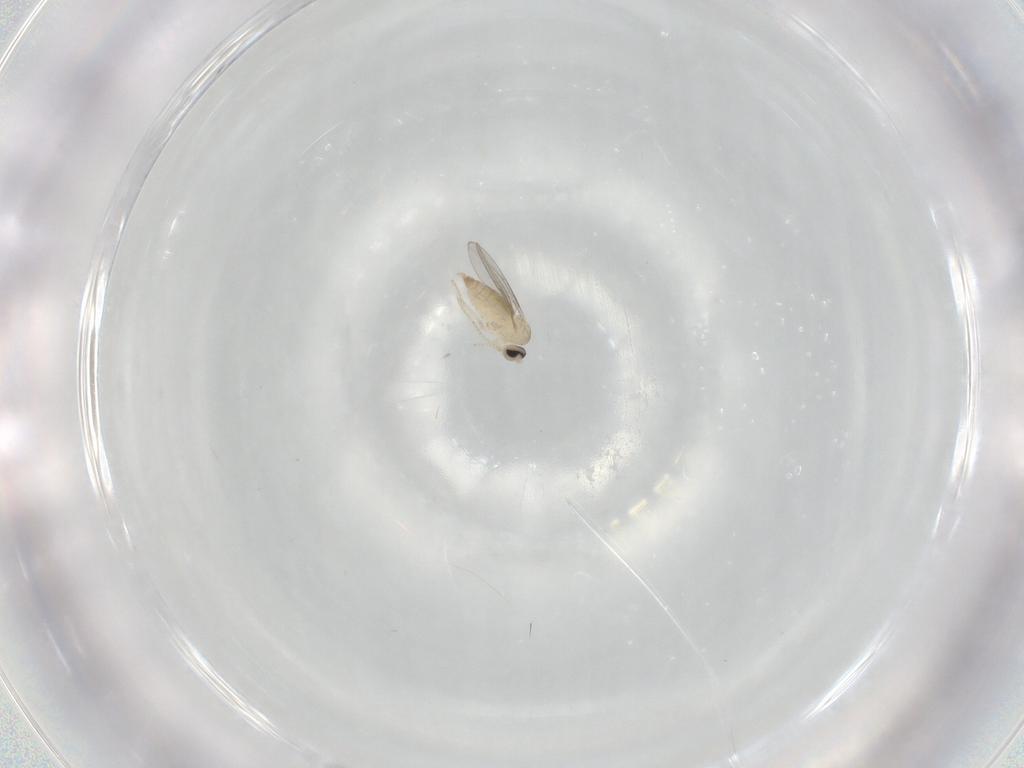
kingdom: Animalia
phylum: Arthropoda
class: Insecta
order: Diptera
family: Cecidomyiidae
